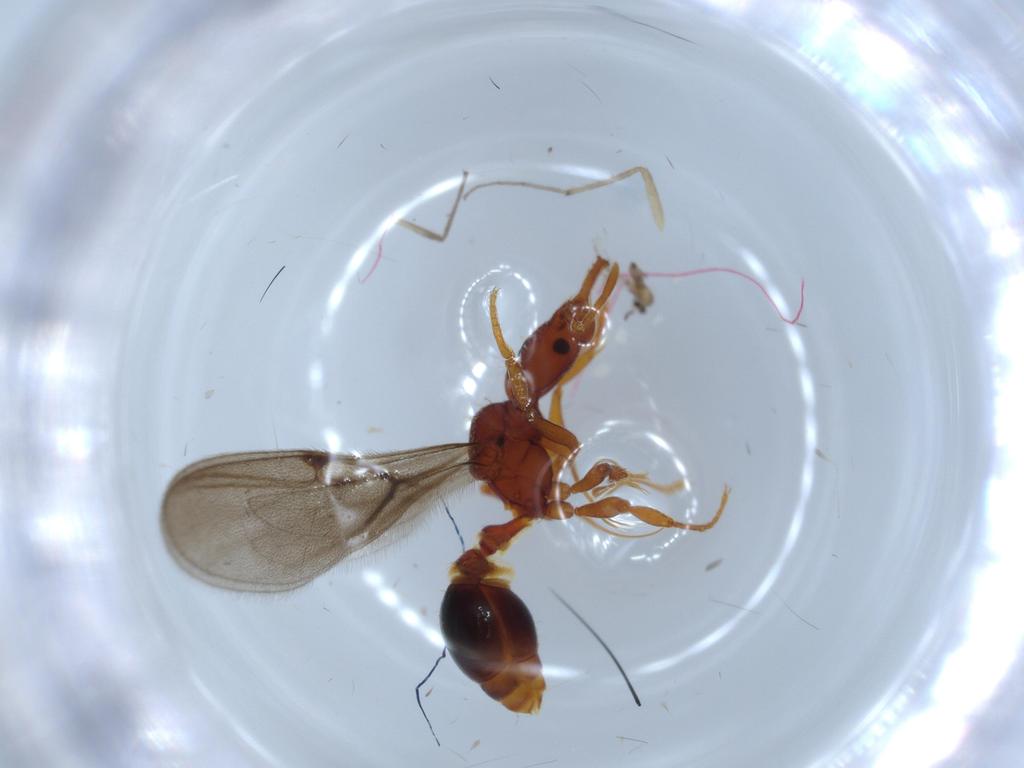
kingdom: Animalia
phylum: Arthropoda
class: Insecta
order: Diptera
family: Cecidomyiidae
